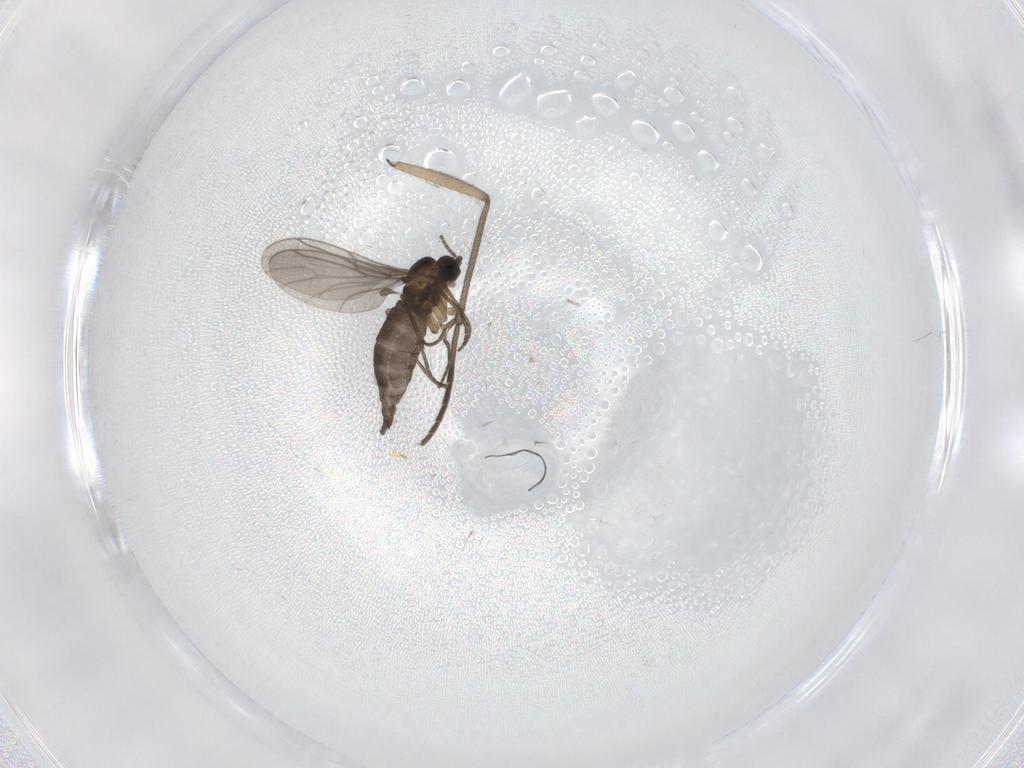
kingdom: Animalia
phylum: Arthropoda
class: Insecta
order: Diptera
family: Sciaridae
